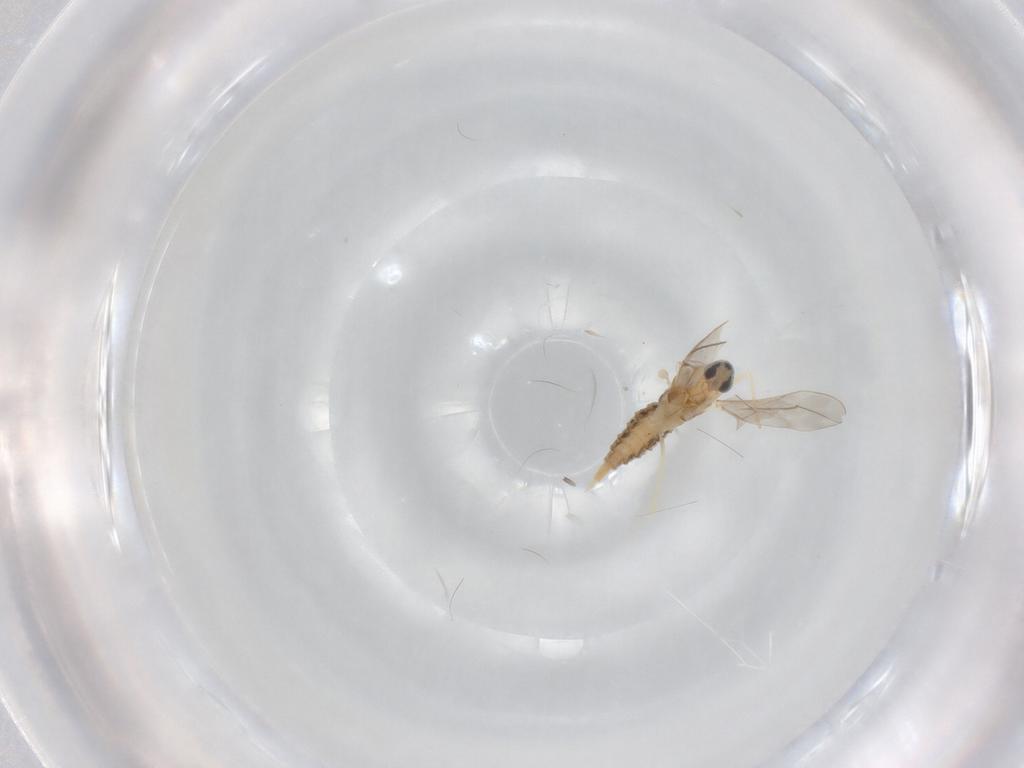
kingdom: Animalia
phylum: Arthropoda
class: Insecta
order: Diptera
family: Cecidomyiidae
